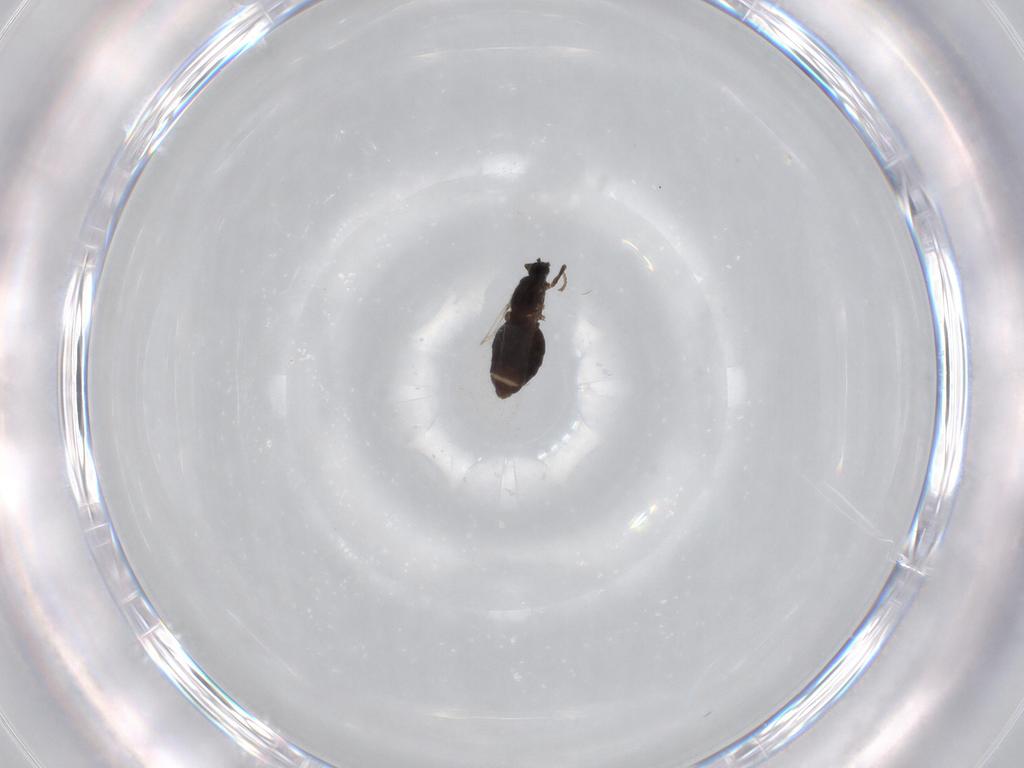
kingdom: Animalia
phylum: Arthropoda
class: Insecta
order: Diptera
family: Scatopsidae
